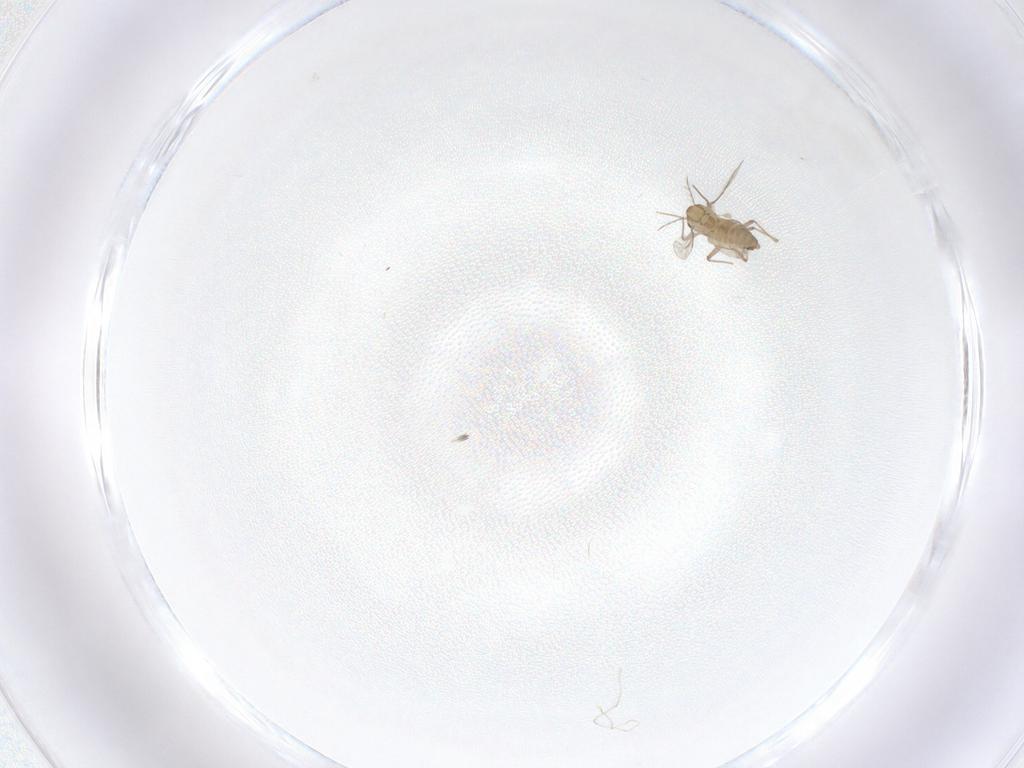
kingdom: Animalia
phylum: Arthropoda
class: Insecta
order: Diptera
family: Chironomidae
